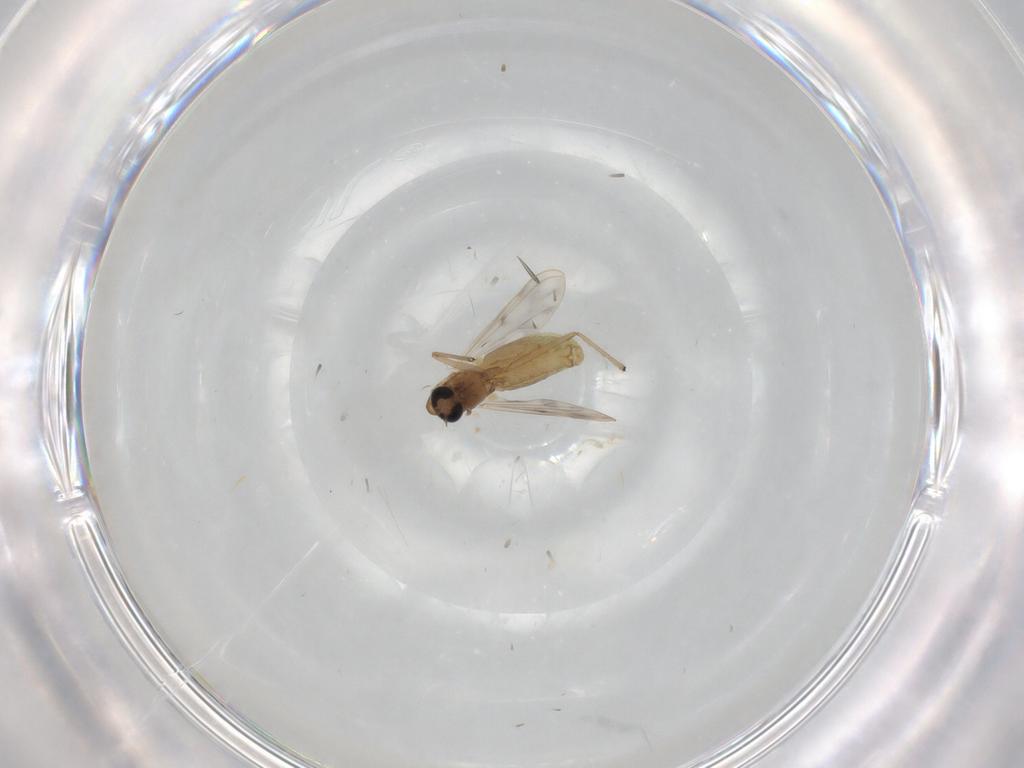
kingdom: Animalia
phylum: Arthropoda
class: Insecta
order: Diptera
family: Chironomidae
